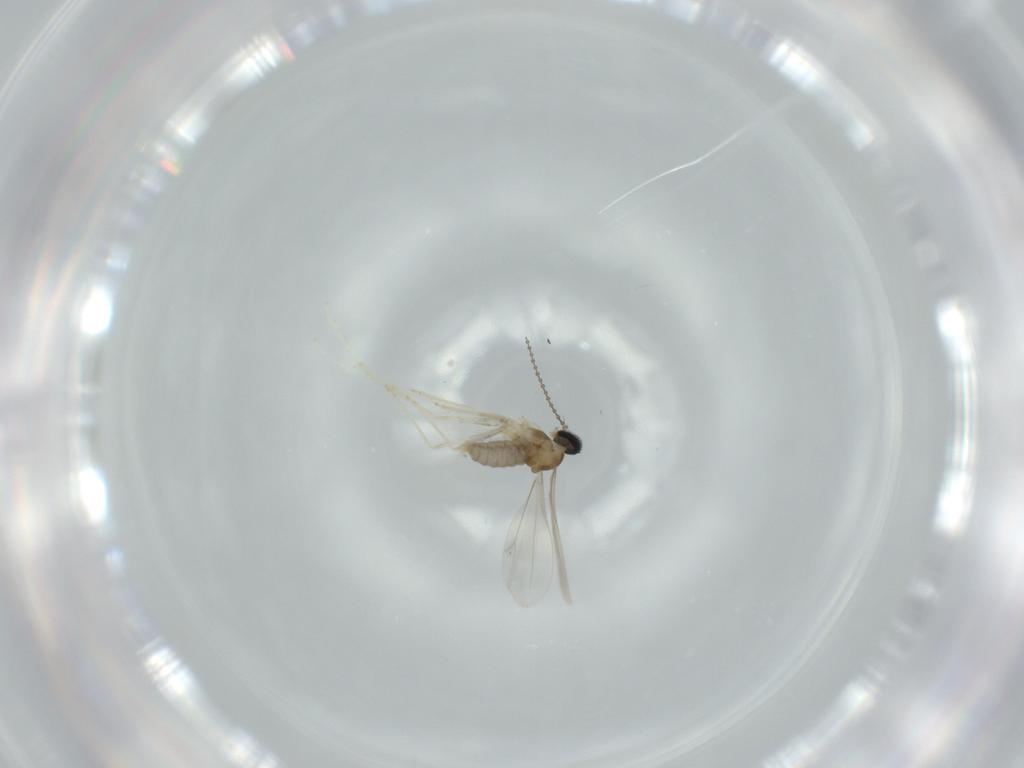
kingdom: Animalia
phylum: Arthropoda
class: Insecta
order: Diptera
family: Cecidomyiidae
